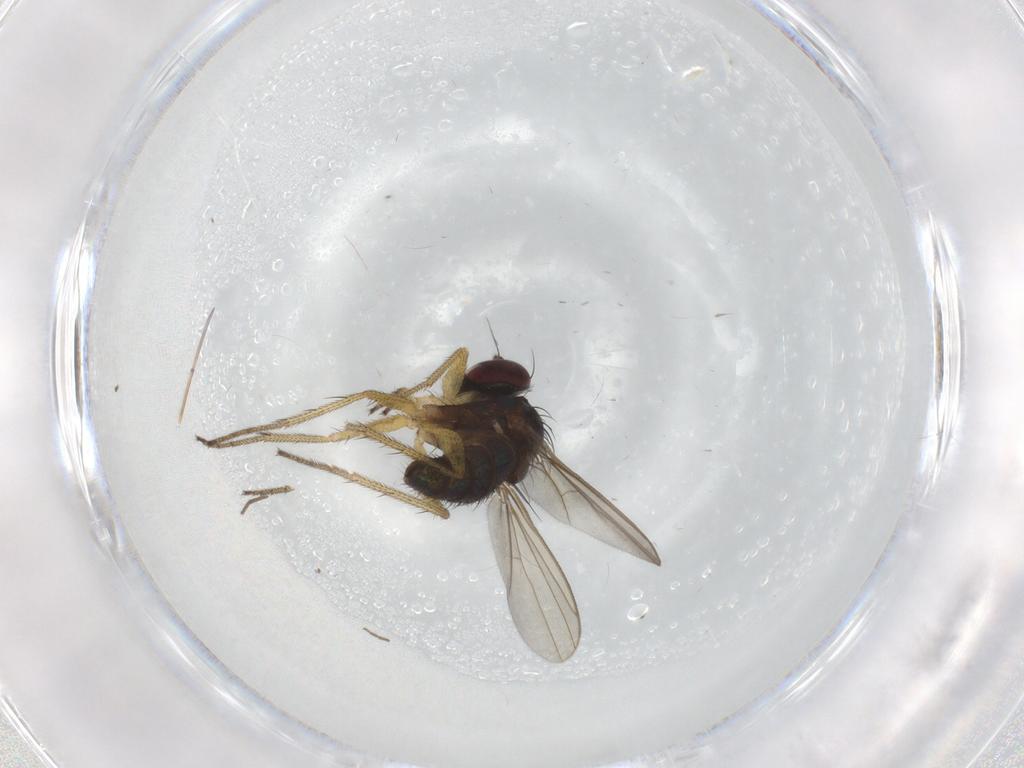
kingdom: Animalia
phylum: Arthropoda
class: Insecta
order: Diptera
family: Dolichopodidae
